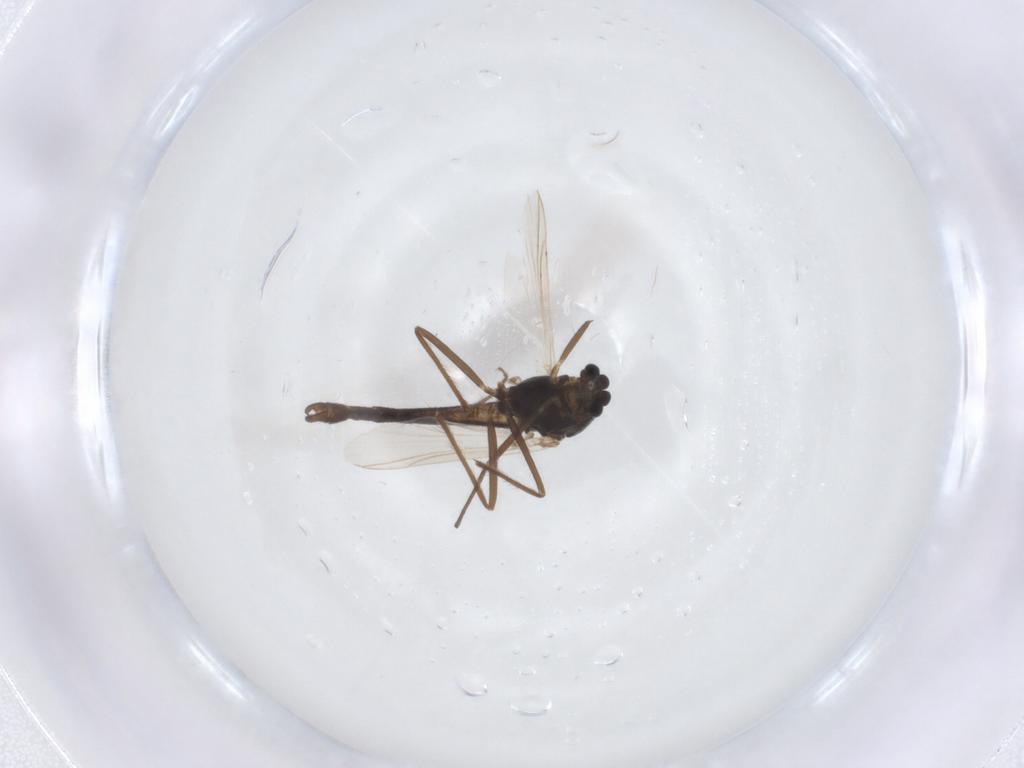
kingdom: Animalia
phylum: Arthropoda
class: Insecta
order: Diptera
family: Chironomidae
